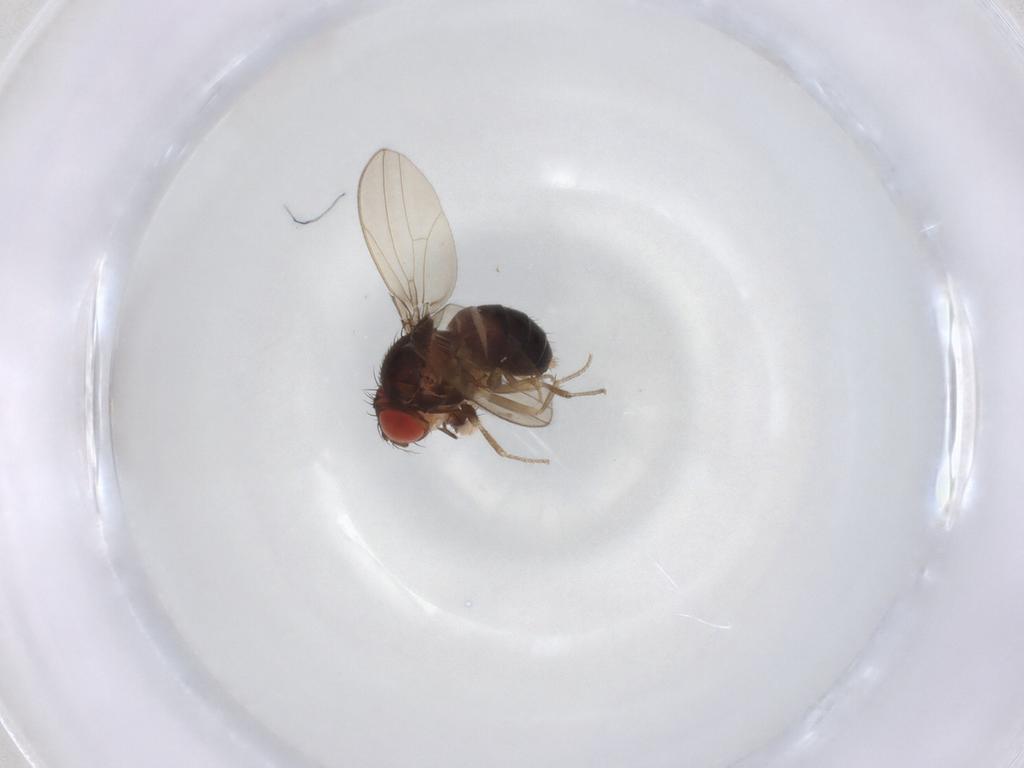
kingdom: Animalia
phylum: Arthropoda
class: Insecta
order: Diptera
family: Drosophilidae
